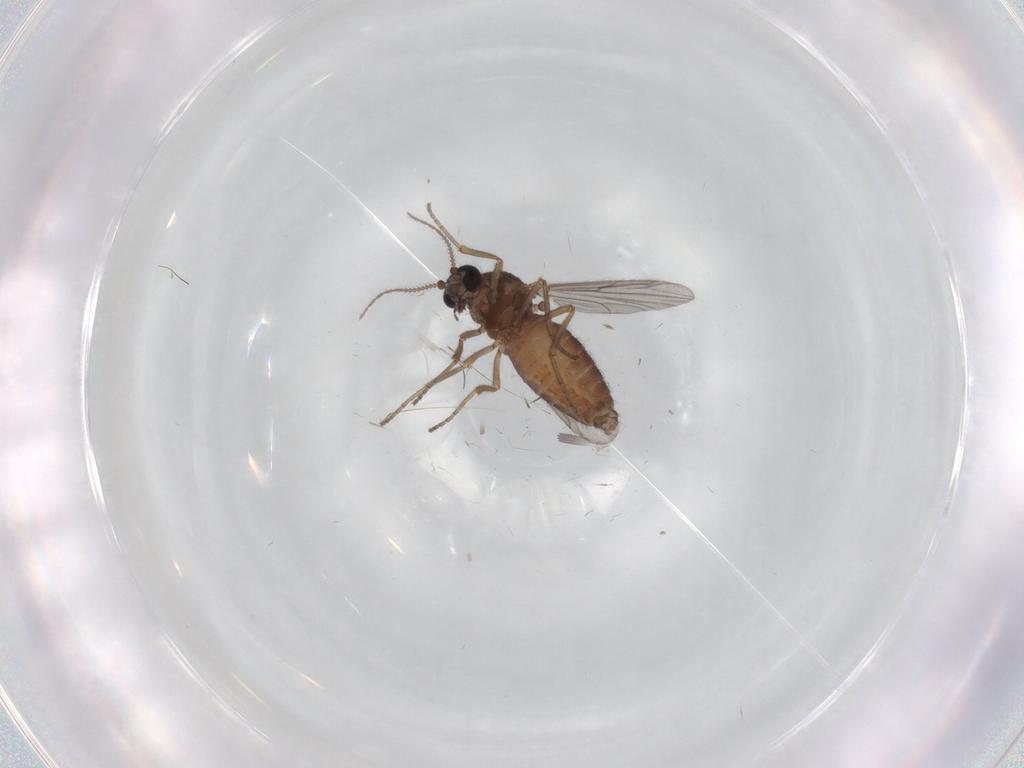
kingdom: Animalia
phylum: Arthropoda
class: Insecta
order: Diptera
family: Ceratopogonidae
